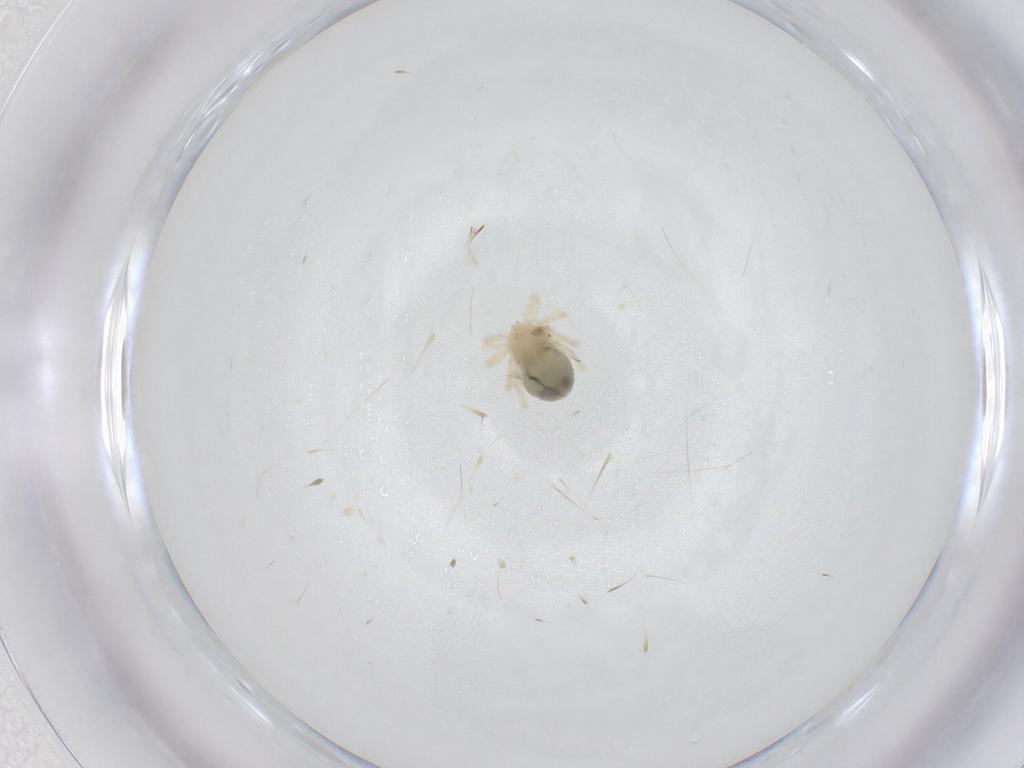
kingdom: Animalia
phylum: Arthropoda
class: Arachnida
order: Trombidiformes
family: Anystidae
